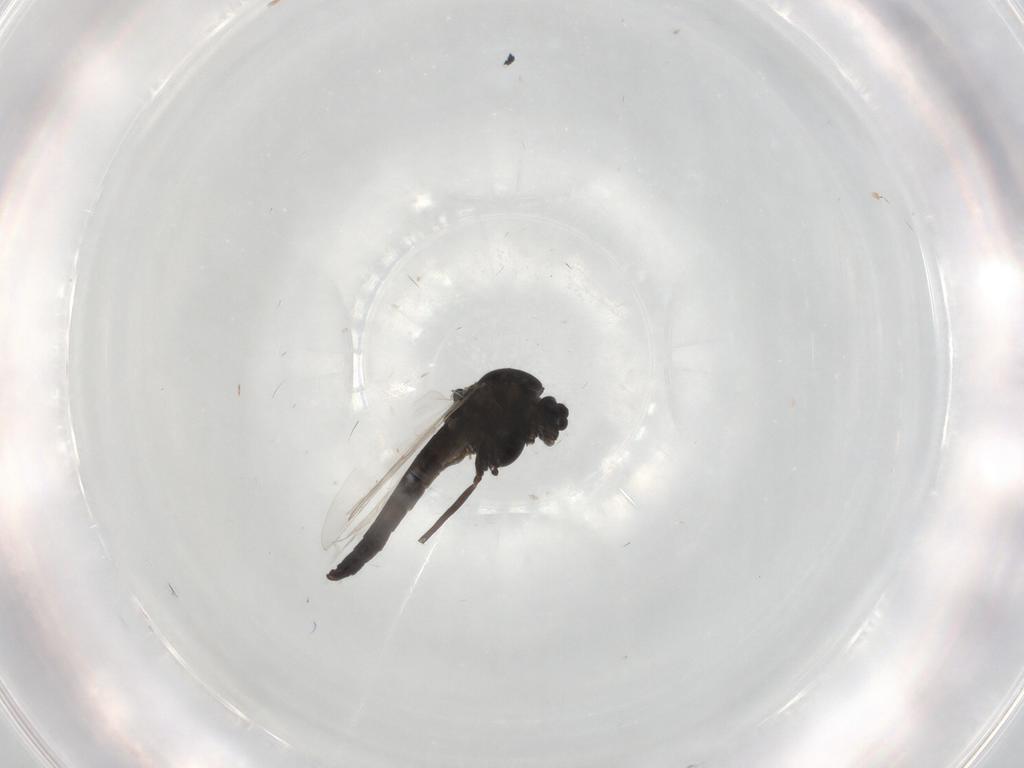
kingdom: Animalia
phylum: Arthropoda
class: Insecta
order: Diptera
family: Chironomidae
